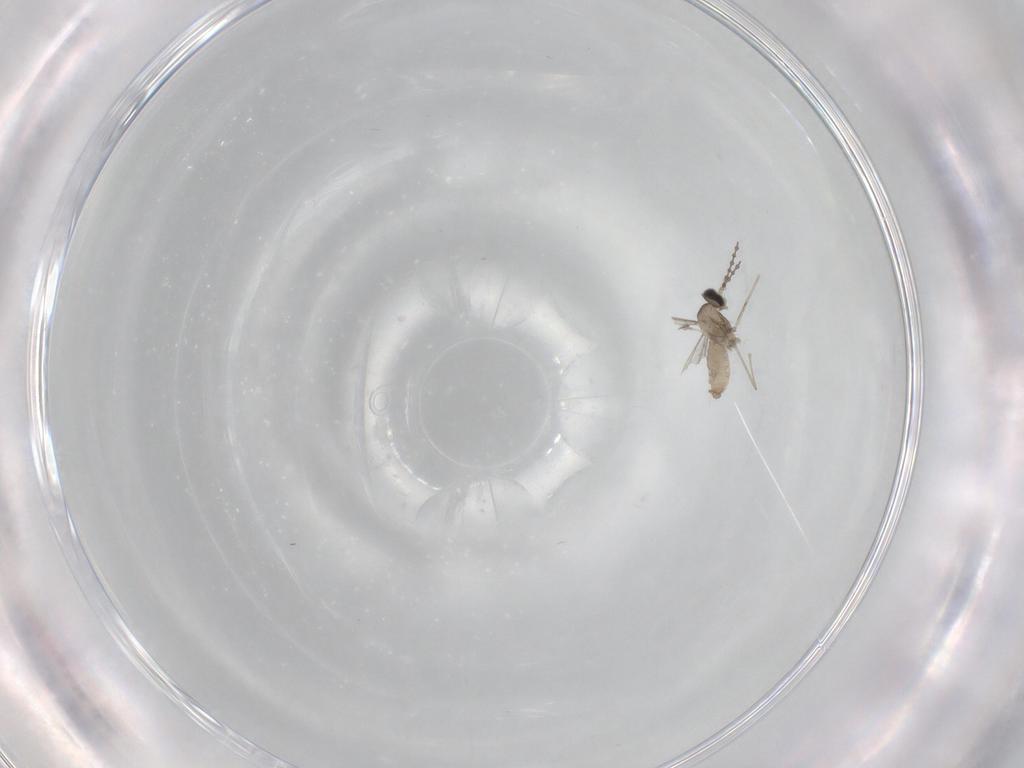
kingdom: Animalia
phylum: Arthropoda
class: Insecta
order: Diptera
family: Cecidomyiidae
